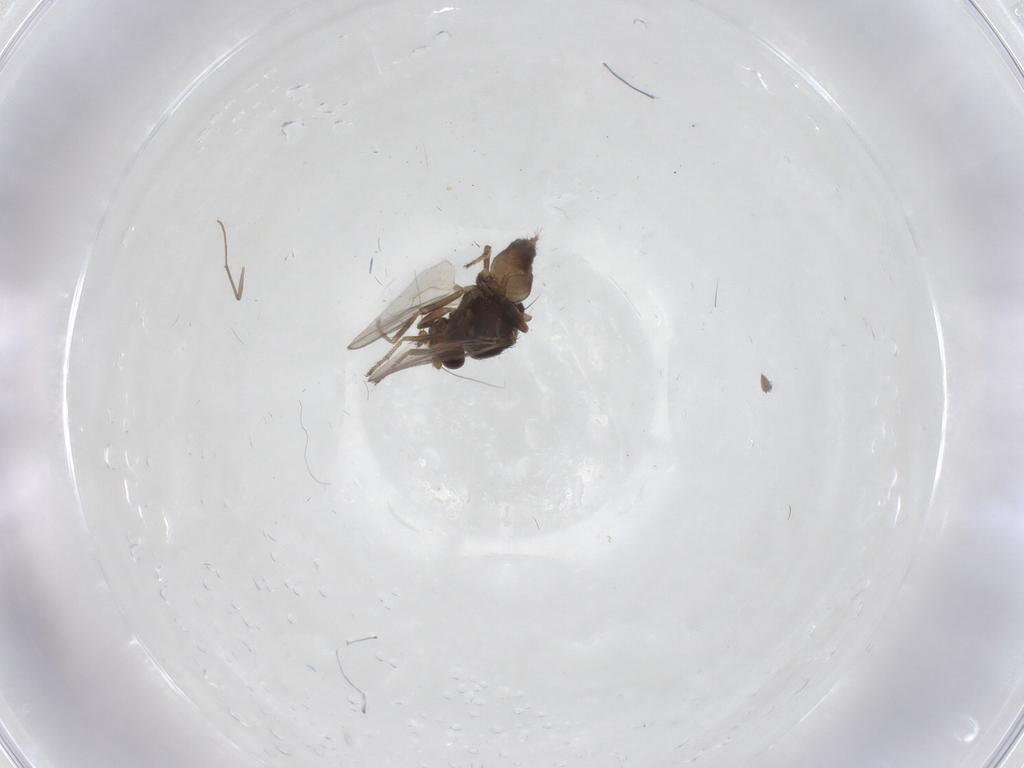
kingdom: Animalia
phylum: Arthropoda
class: Insecta
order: Diptera
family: Sphaeroceridae
